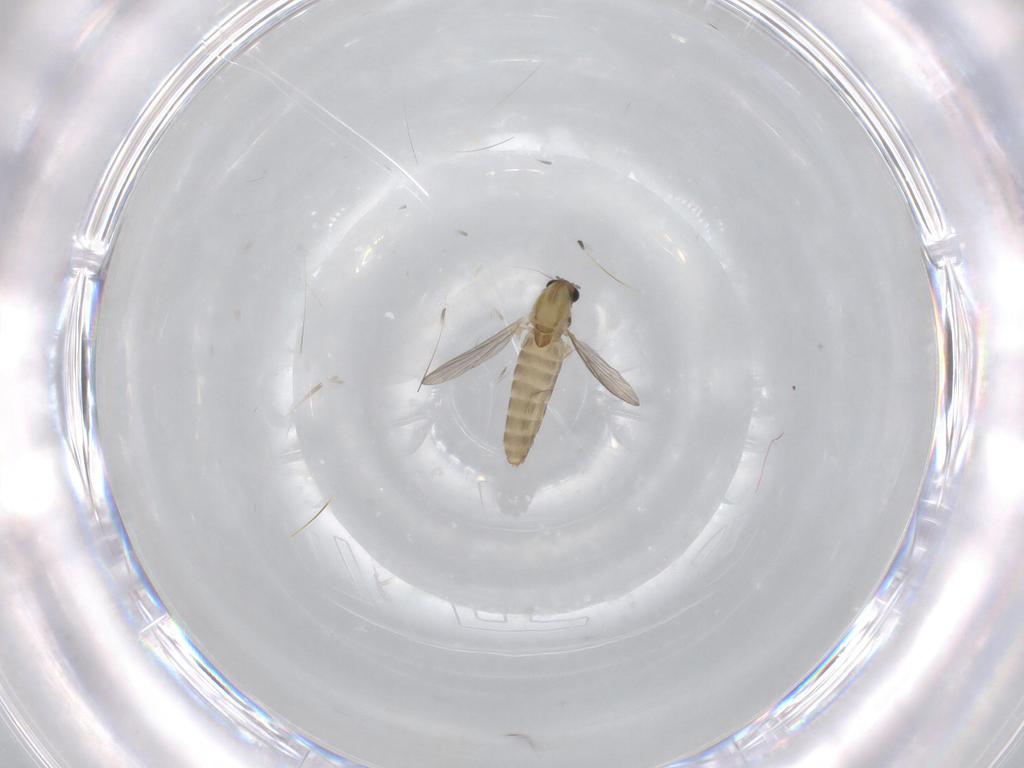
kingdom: Animalia
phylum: Arthropoda
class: Insecta
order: Diptera
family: Chironomidae
